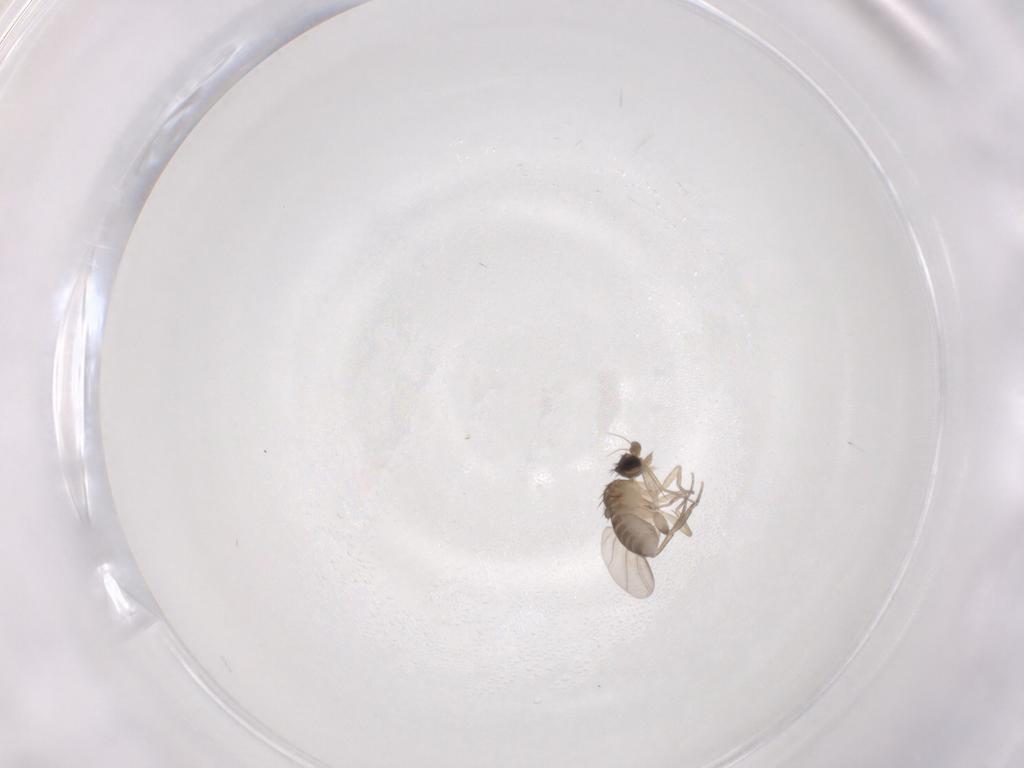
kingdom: Animalia
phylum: Arthropoda
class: Insecta
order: Diptera
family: Phoridae
